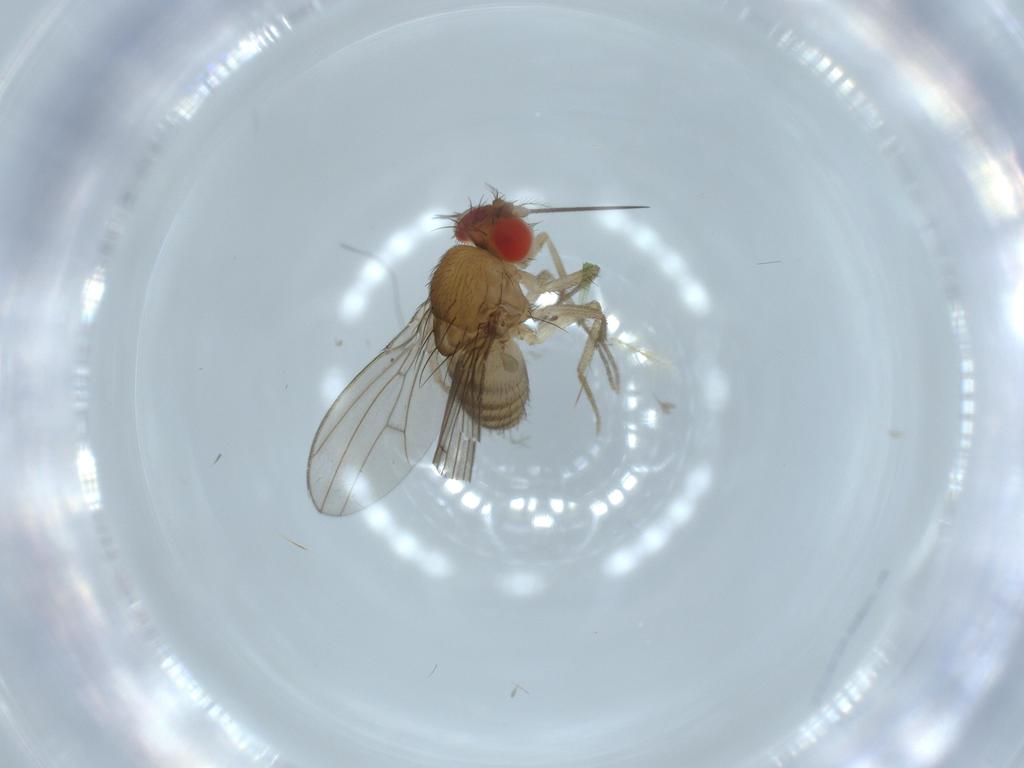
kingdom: Animalia
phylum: Arthropoda
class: Insecta
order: Diptera
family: Drosophilidae
